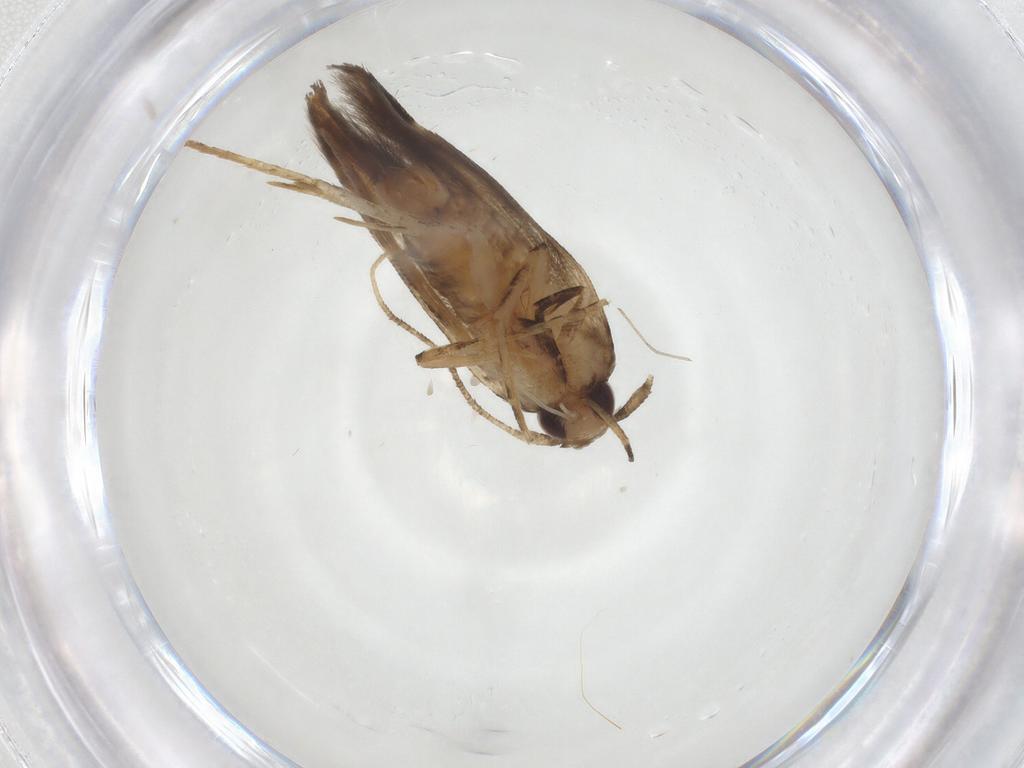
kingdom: Animalia
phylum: Arthropoda
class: Insecta
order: Lepidoptera
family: Cosmopterigidae
